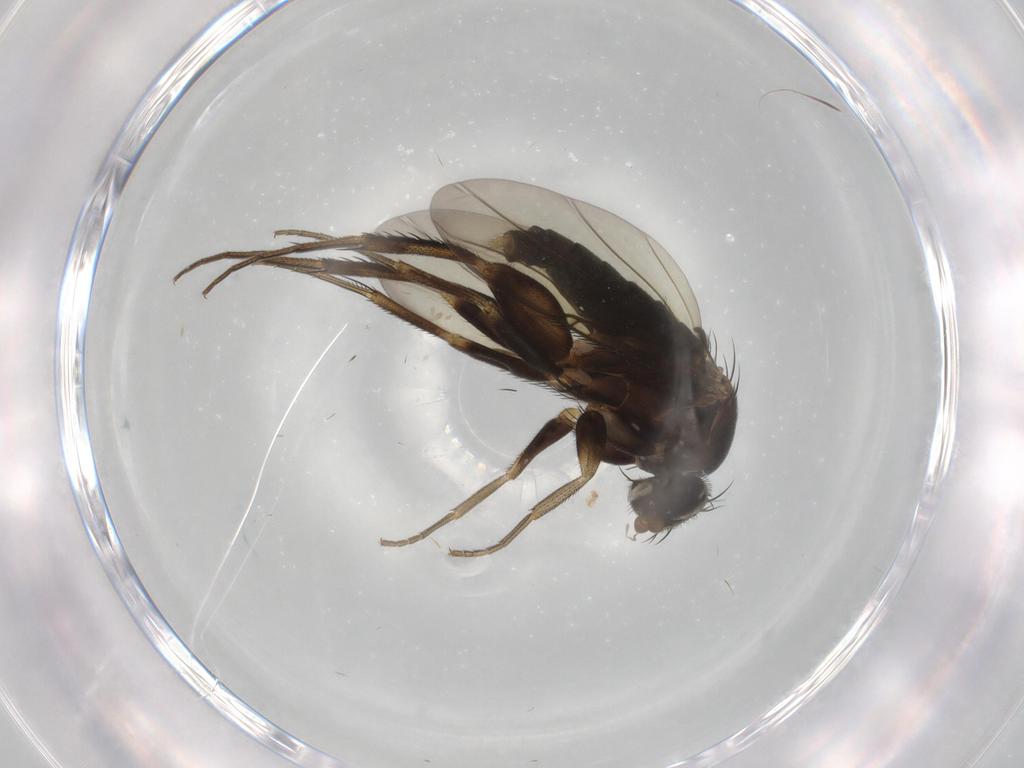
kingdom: Animalia
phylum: Arthropoda
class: Insecta
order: Diptera
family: Phoridae
